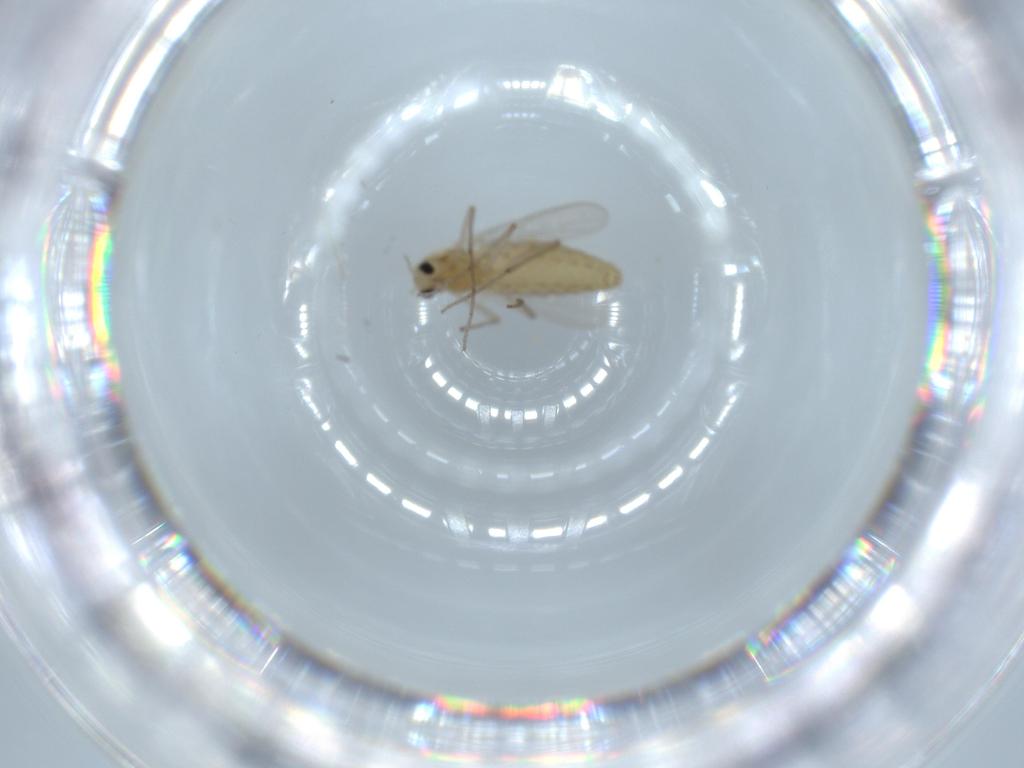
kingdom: Animalia
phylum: Arthropoda
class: Insecta
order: Diptera
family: Chironomidae
